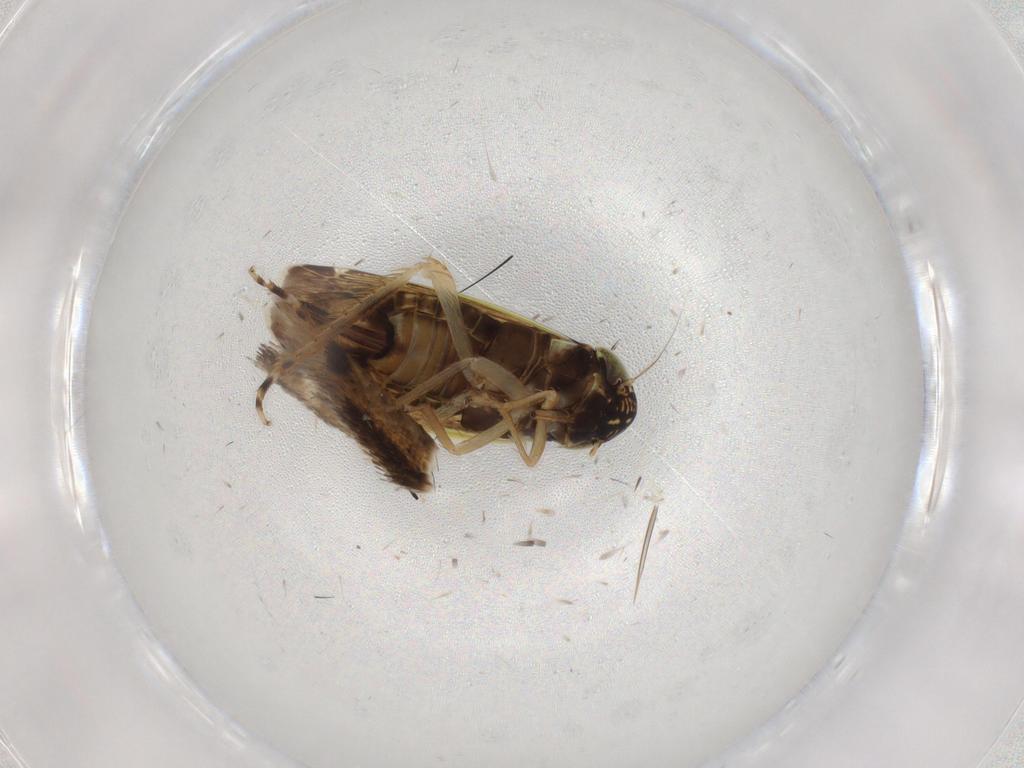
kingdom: Animalia
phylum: Arthropoda
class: Insecta
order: Hemiptera
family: Cicadellidae
